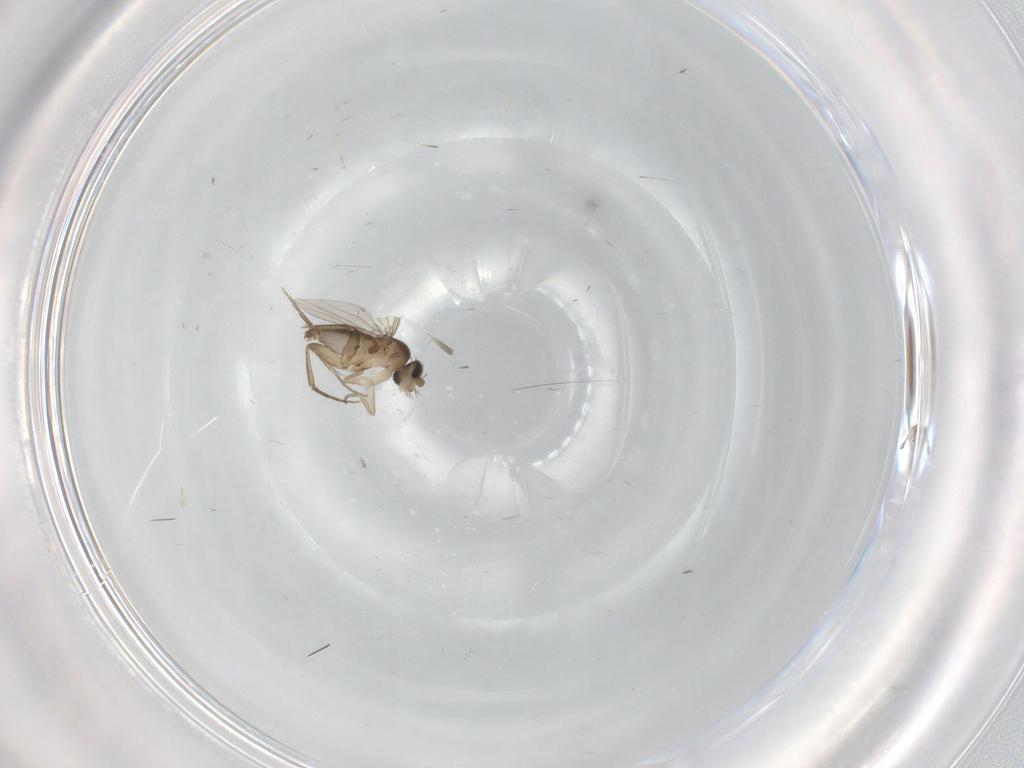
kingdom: Animalia
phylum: Arthropoda
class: Insecta
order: Diptera
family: Cecidomyiidae
